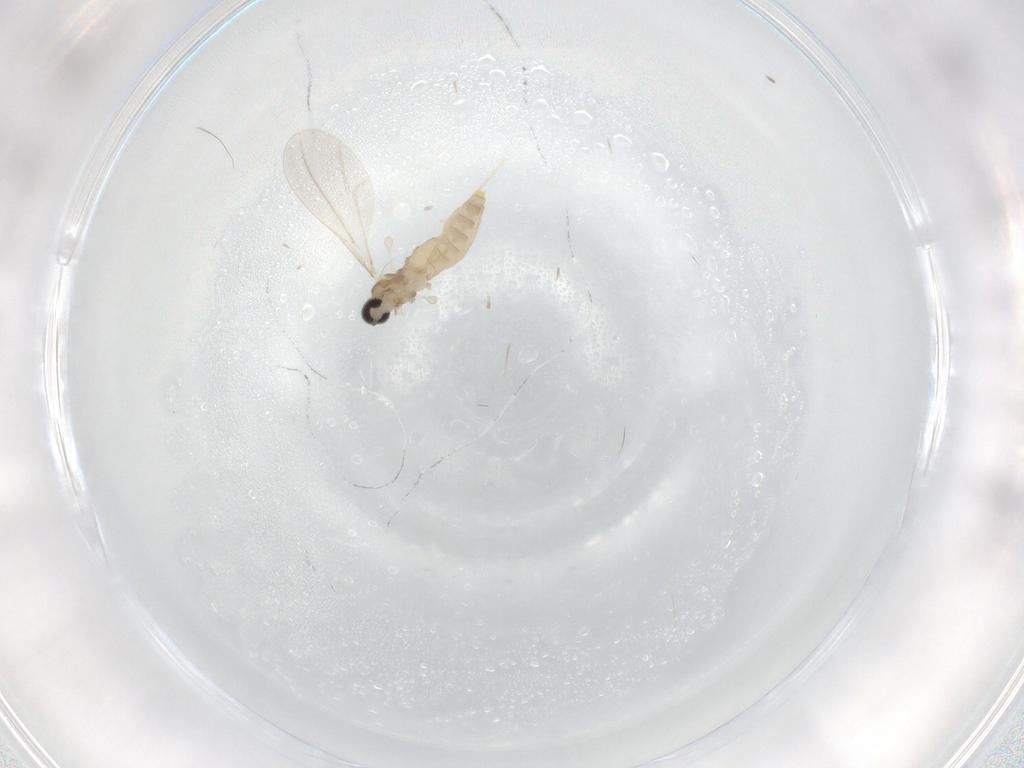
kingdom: Animalia
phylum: Arthropoda
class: Insecta
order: Diptera
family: Cecidomyiidae
